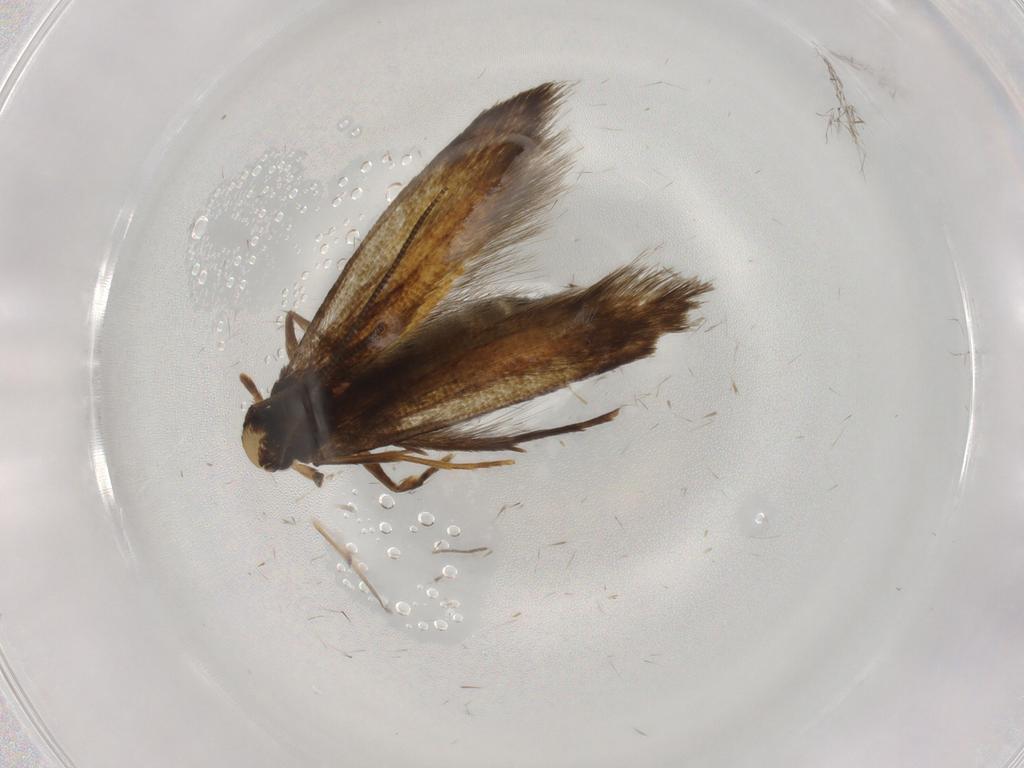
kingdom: Animalia
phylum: Arthropoda
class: Insecta
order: Lepidoptera
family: Tineidae
